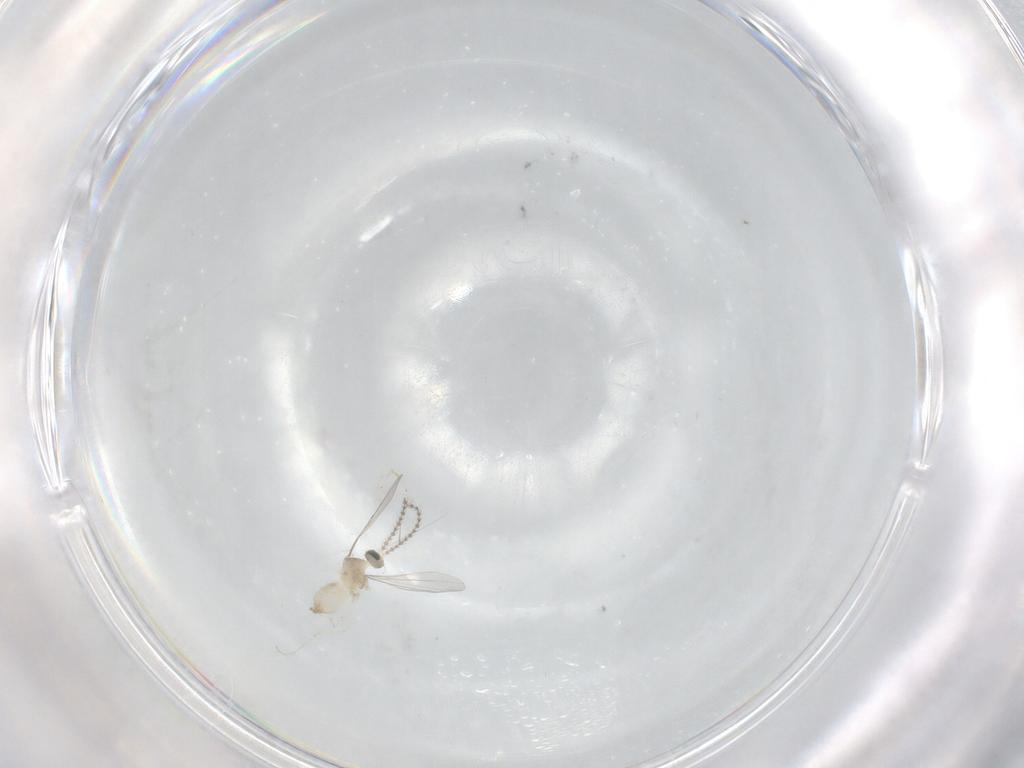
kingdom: Animalia
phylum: Arthropoda
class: Insecta
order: Diptera
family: Cecidomyiidae
